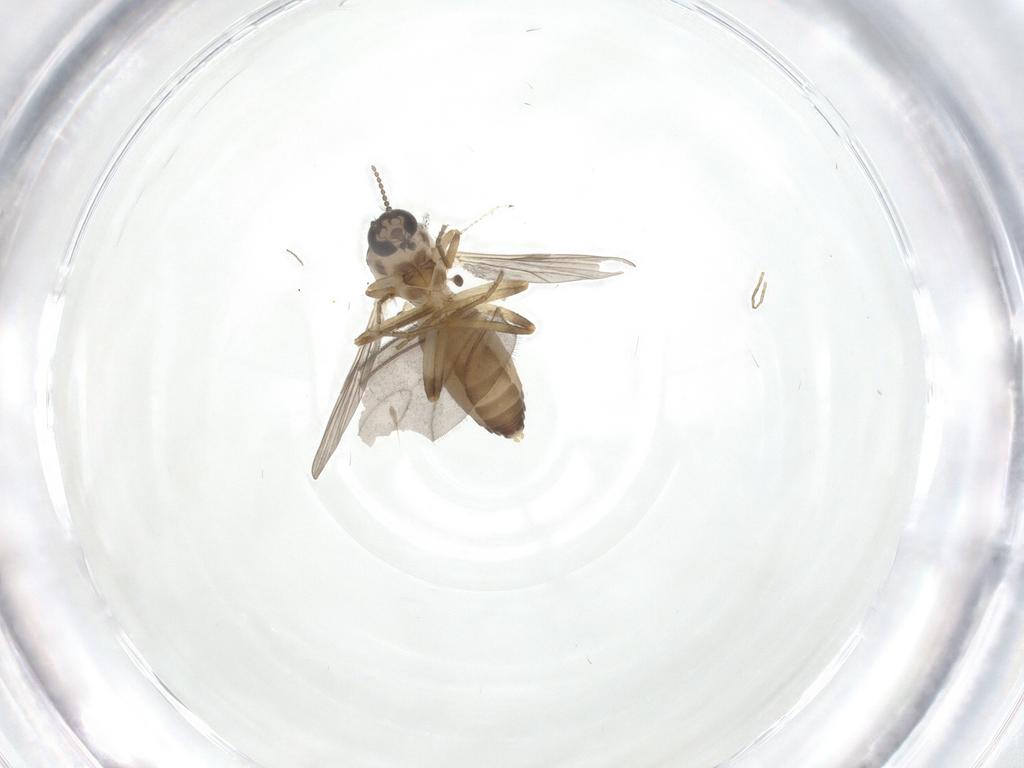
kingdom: Animalia
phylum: Arthropoda
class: Insecta
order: Diptera
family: Ceratopogonidae
